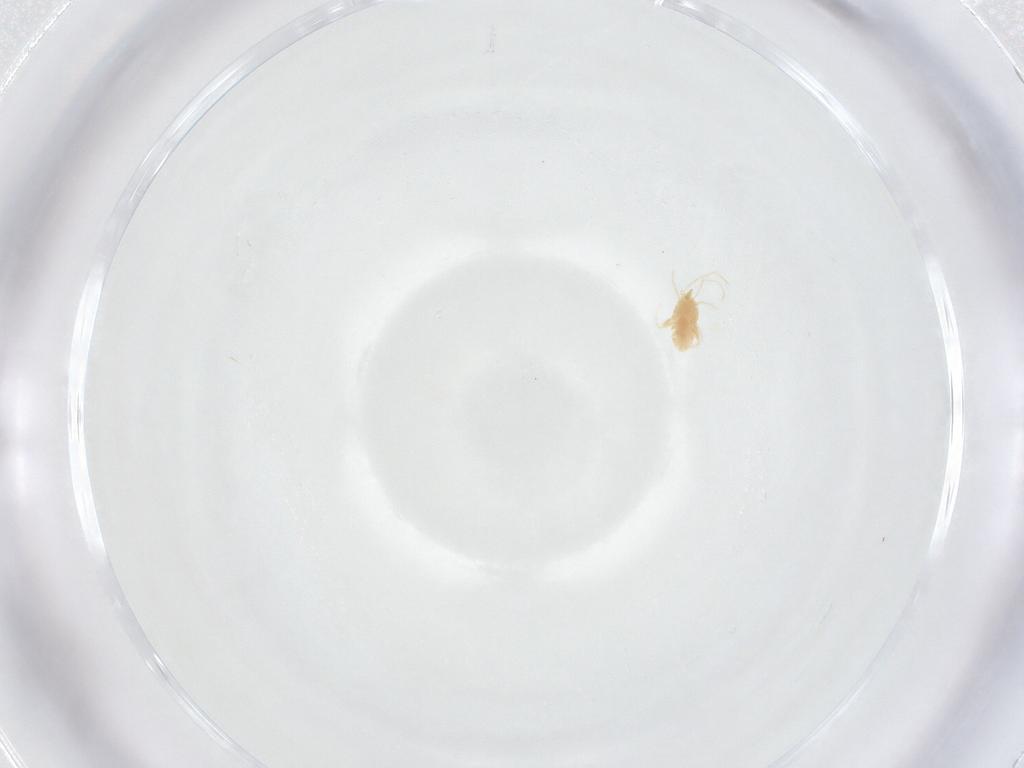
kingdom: Animalia
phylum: Arthropoda
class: Arachnida
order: Trombidiformes
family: Eupodidae
